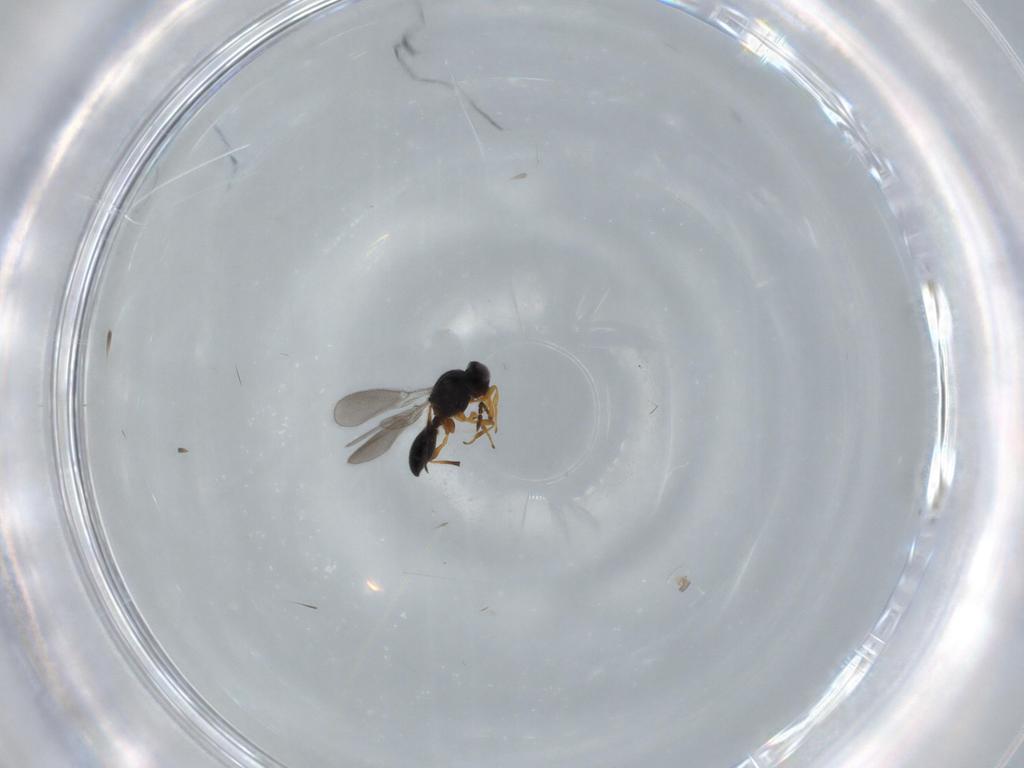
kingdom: Animalia
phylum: Arthropoda
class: Insecta
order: Hymenoptera
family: Platygastridae
